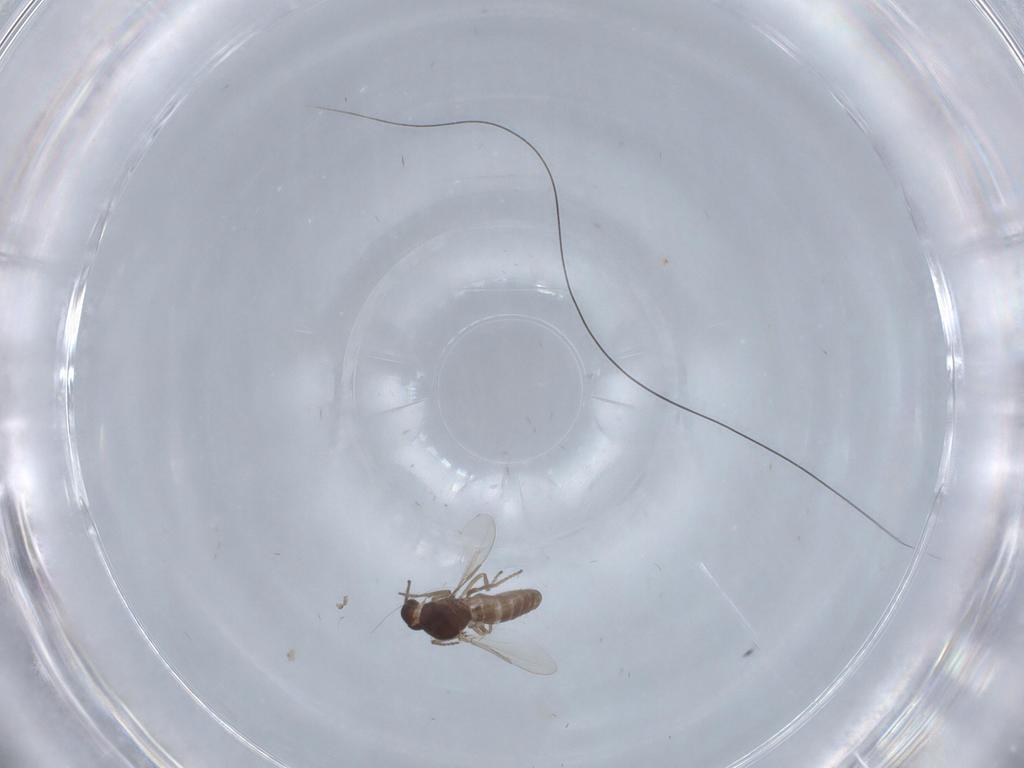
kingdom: Animalia
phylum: Arthropoda
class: Insecta
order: Diptera
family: Ceratopogonidae
